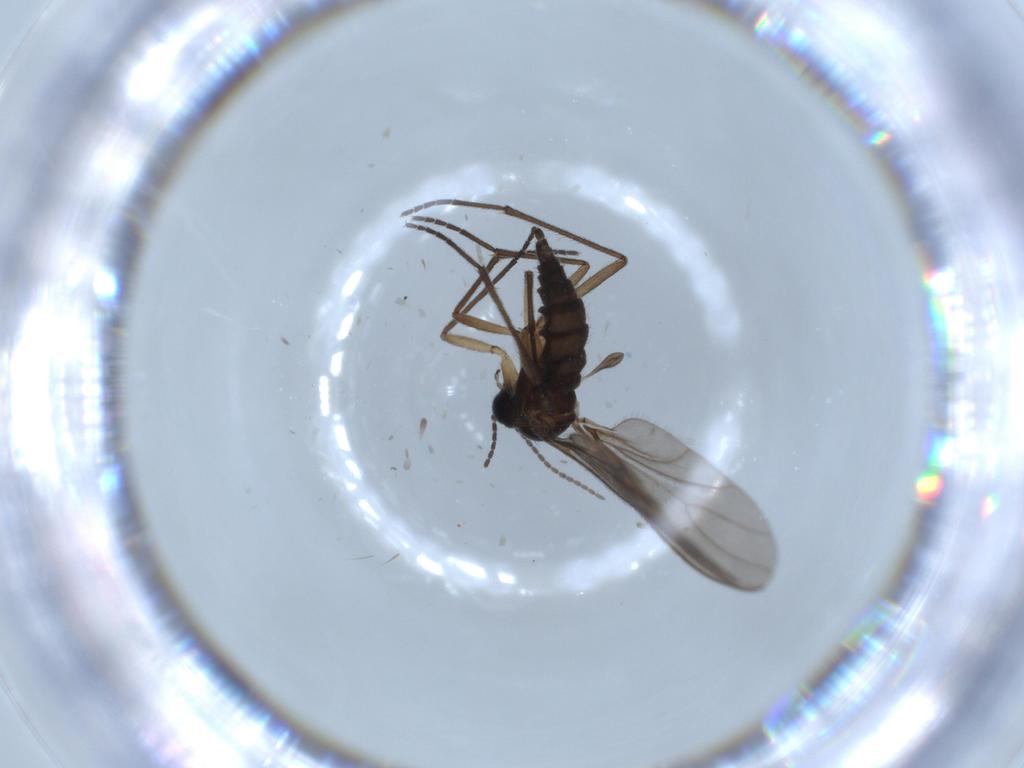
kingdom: Animalia
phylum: Arthropoda
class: Insecta
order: Diptera
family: Sciaridae
